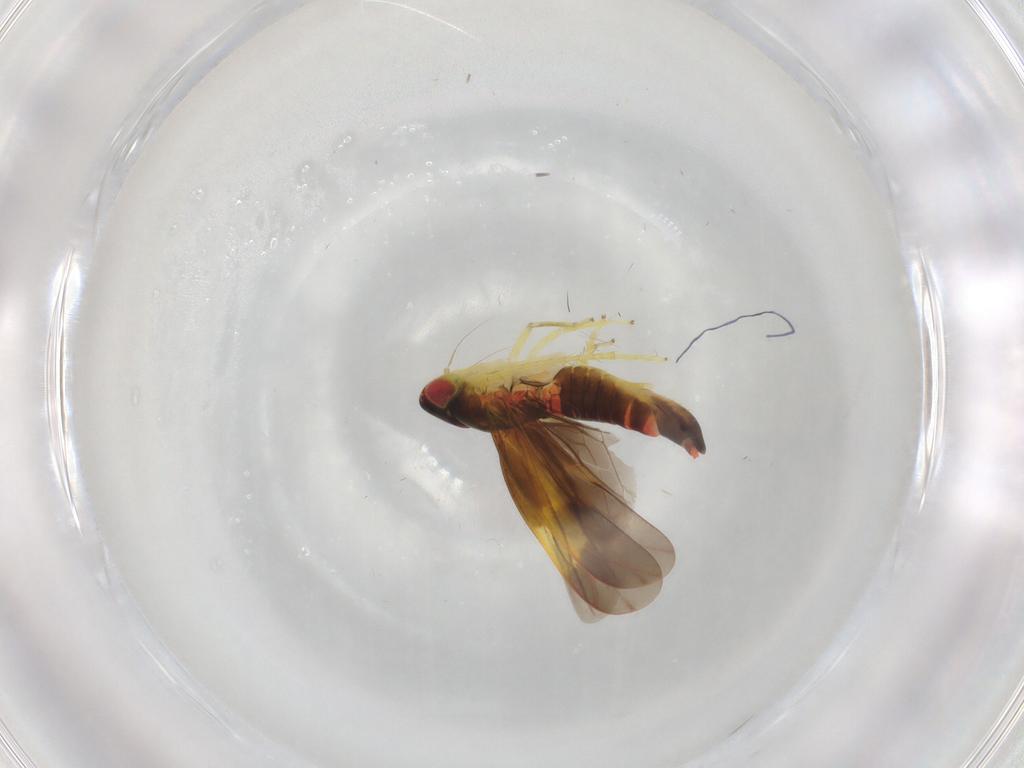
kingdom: Animalia
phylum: Arthropoda
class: Insecta
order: Hemiptera
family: Cicadellidae
